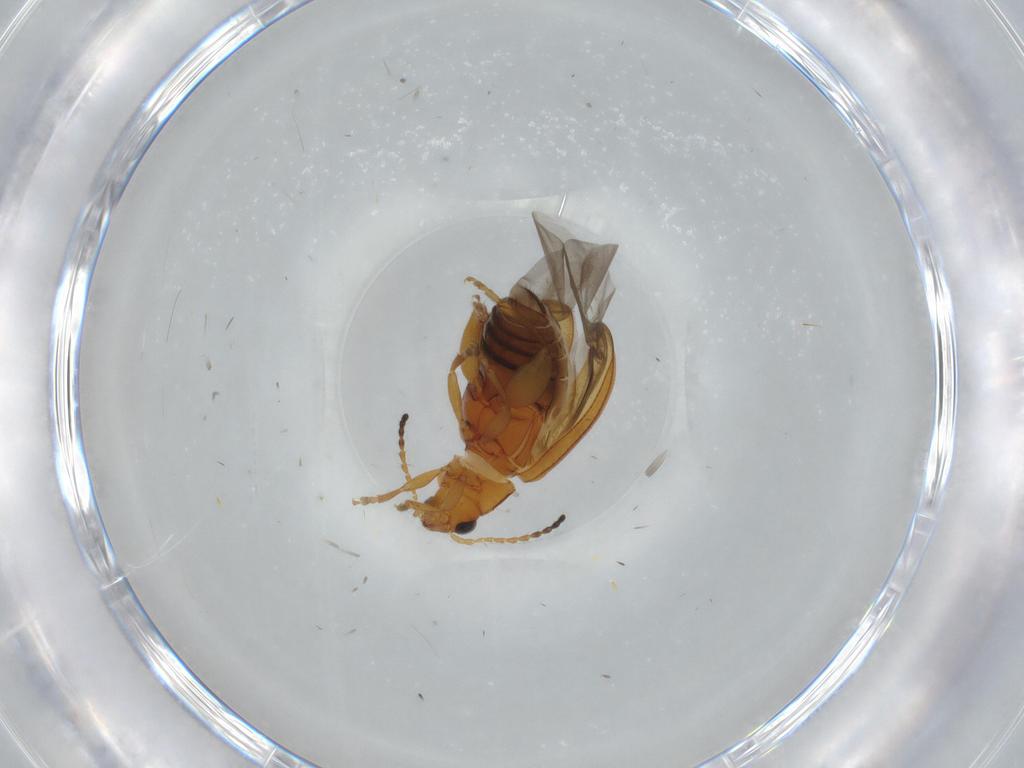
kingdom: Animalia
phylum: Arthropoda
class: Insecta
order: Coleoptera
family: Chrysomelidae
